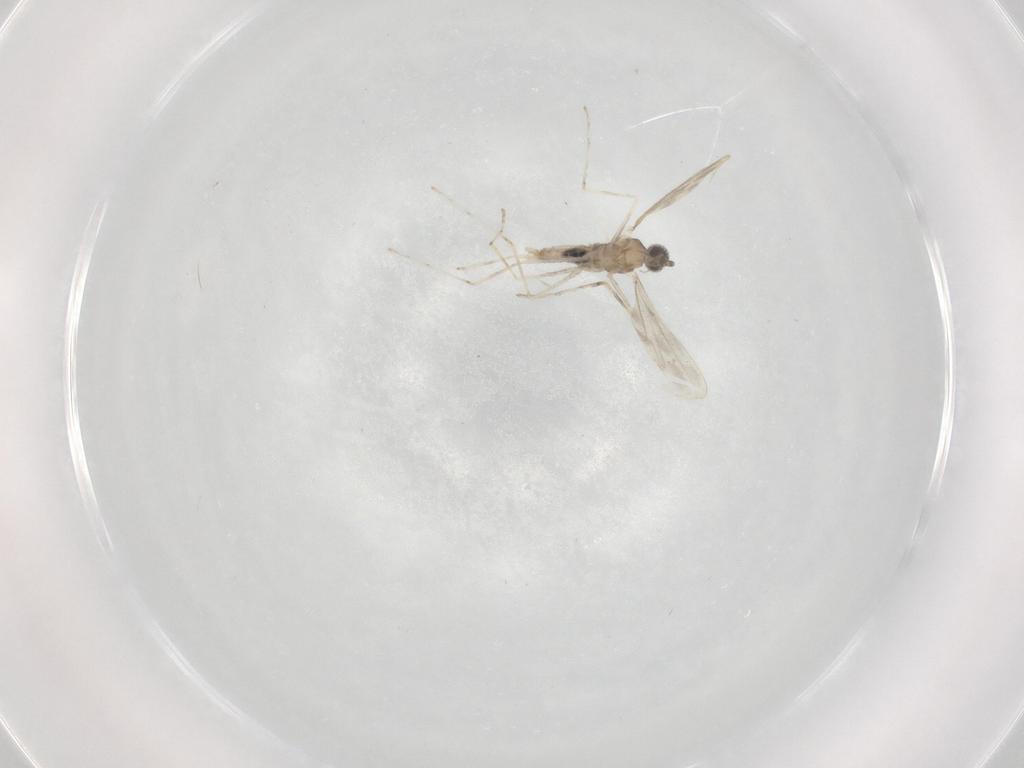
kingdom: Animalia
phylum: Arthropoda
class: Insecta
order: Diptera
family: Cecidomyiidae
